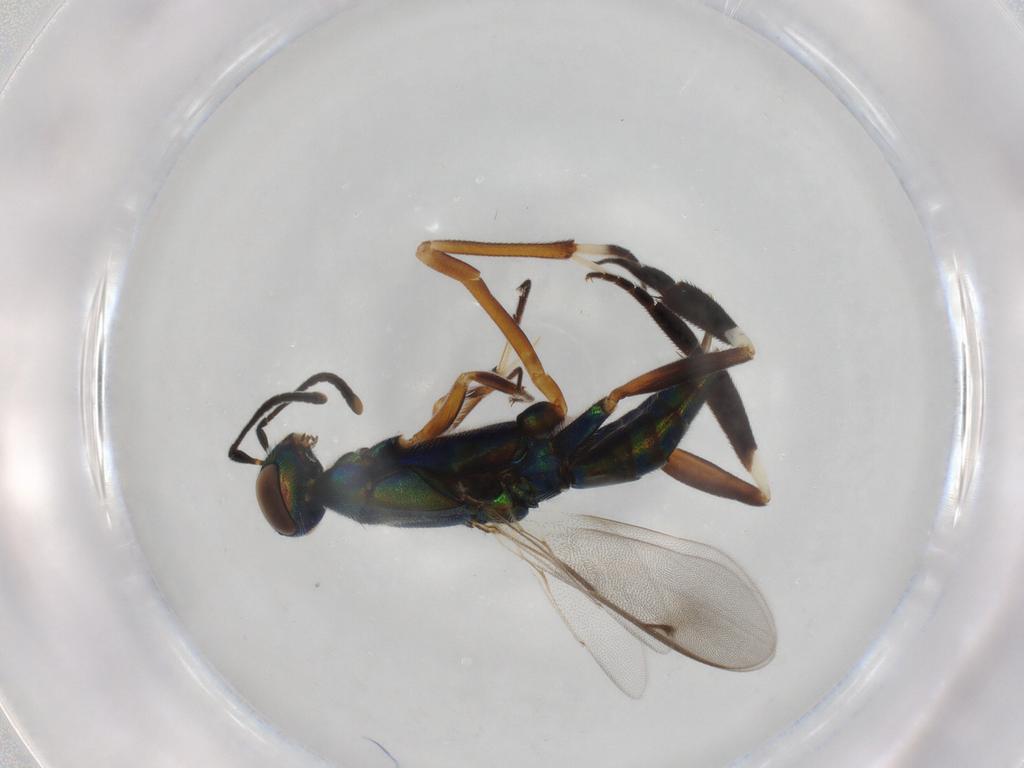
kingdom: Animalia
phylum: Arthropoda
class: Insecta
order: Hymenoptera
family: Eupelmidae
